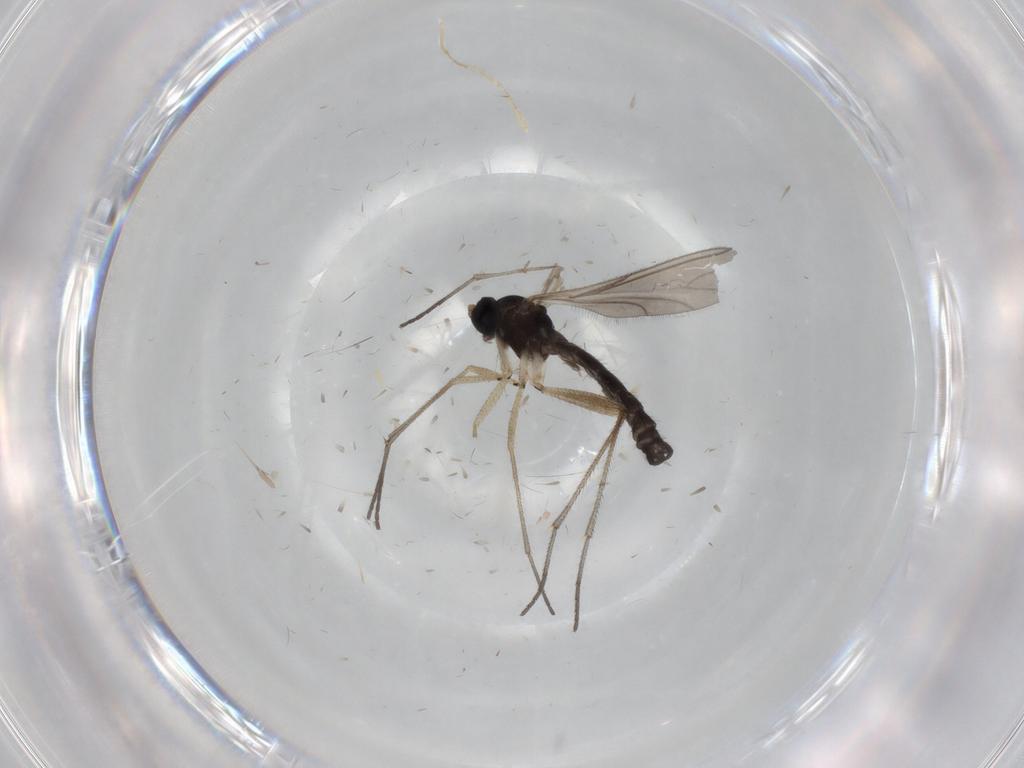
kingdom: Animalia
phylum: Arthropoda
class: Insecta
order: Diptera
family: Sciaridae
